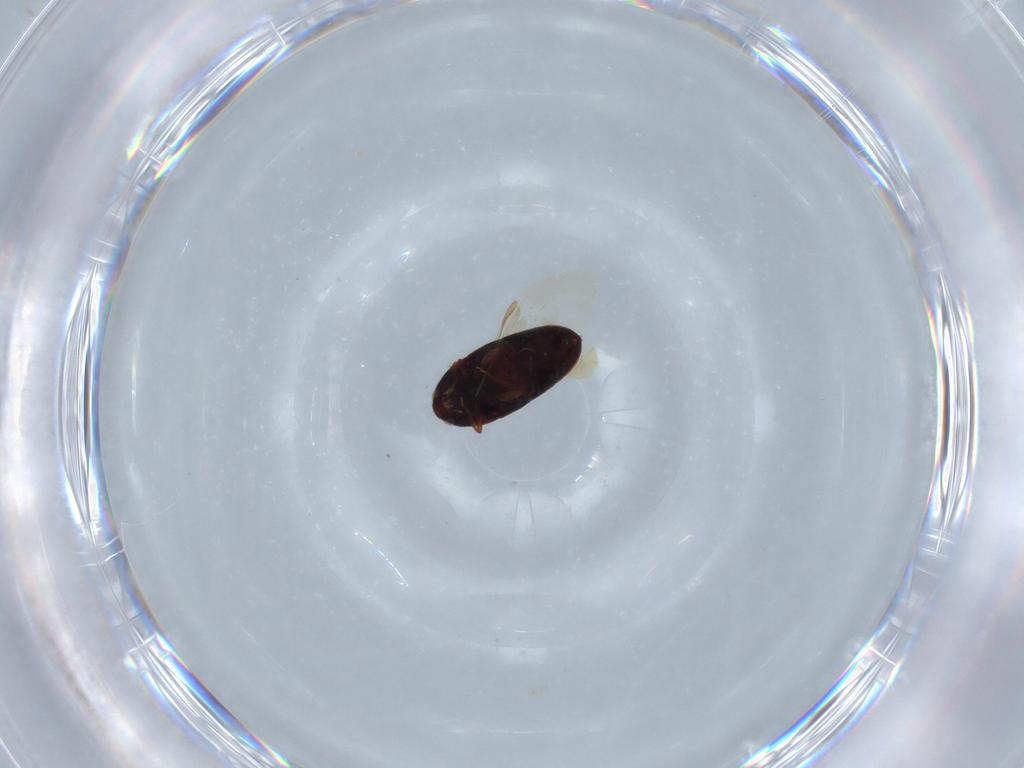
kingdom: Animalia
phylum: Arthropoda
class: Insecta
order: Coleoptera
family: Throscidae
